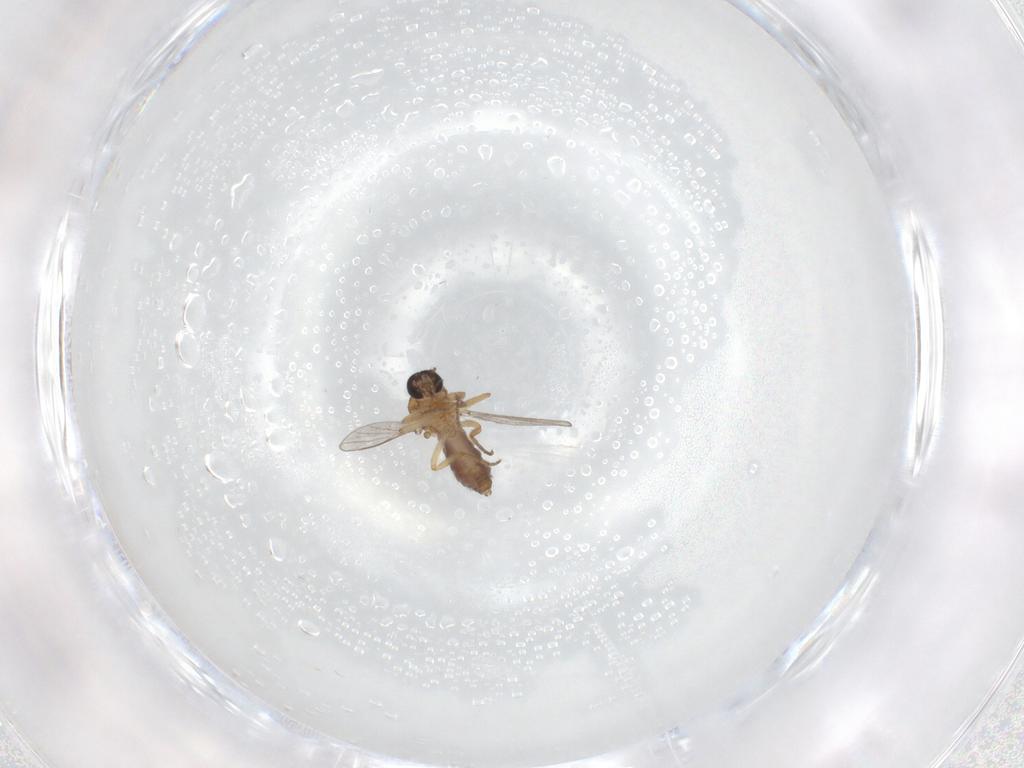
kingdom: Animalia
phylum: Arthropoda
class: Insecta
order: Diptera
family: Ceratopogonidae
